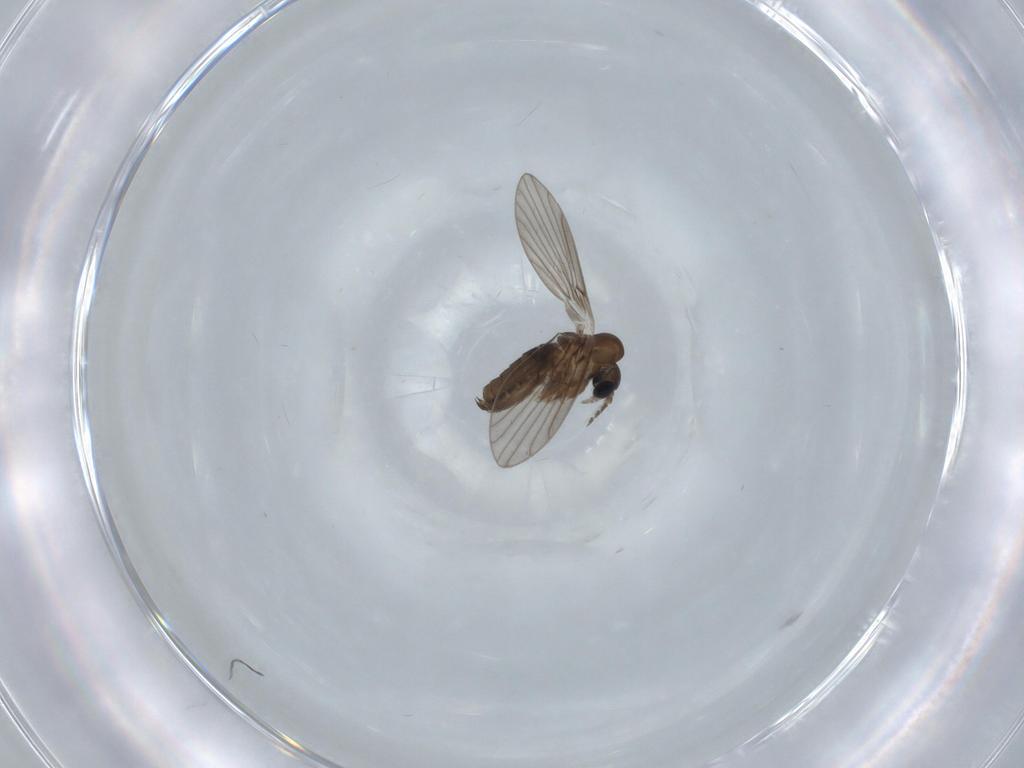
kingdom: Animalia
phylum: Arthropoda
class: Insecta
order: Diptera
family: Psychodidae
